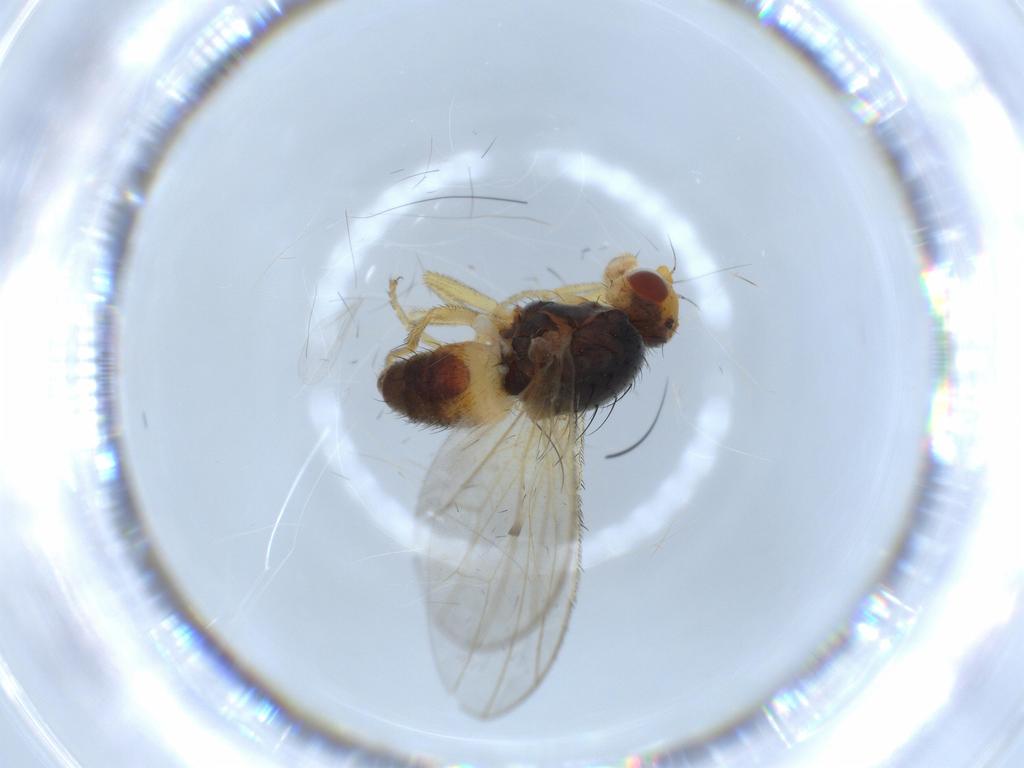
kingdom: Animalia
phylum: Arthropoda
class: Insecta
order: Diptera
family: Heleomyzidae
